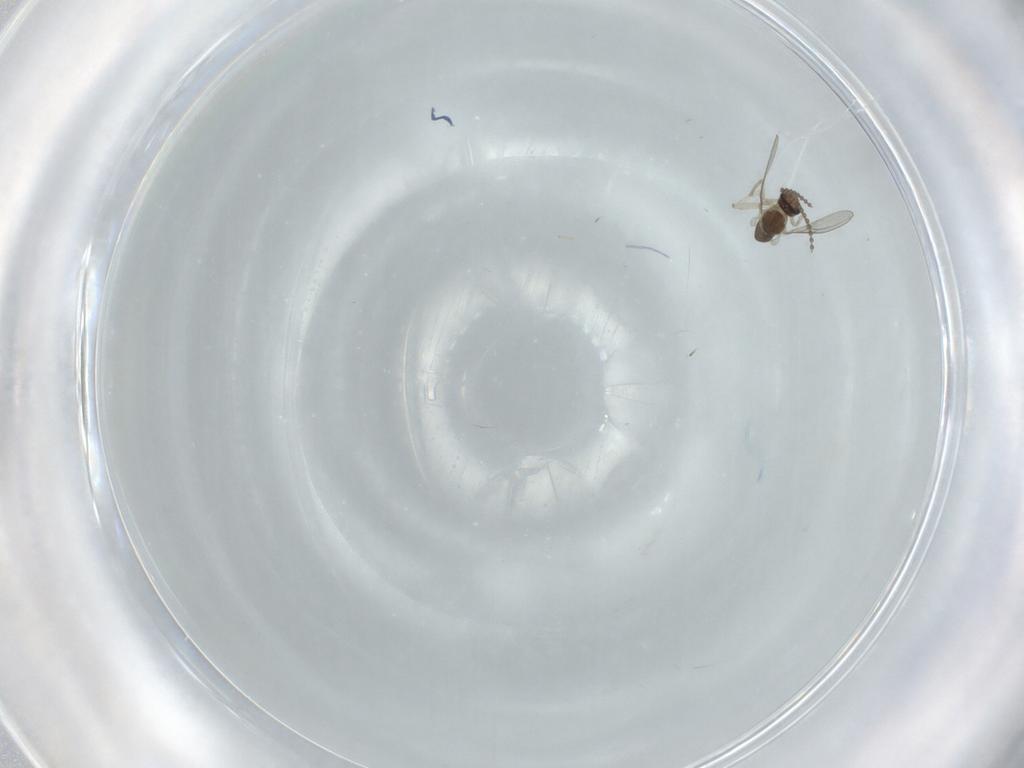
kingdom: Animalia
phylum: Arthropoda
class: Insecta
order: Diptera
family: Cecidomyiidae
